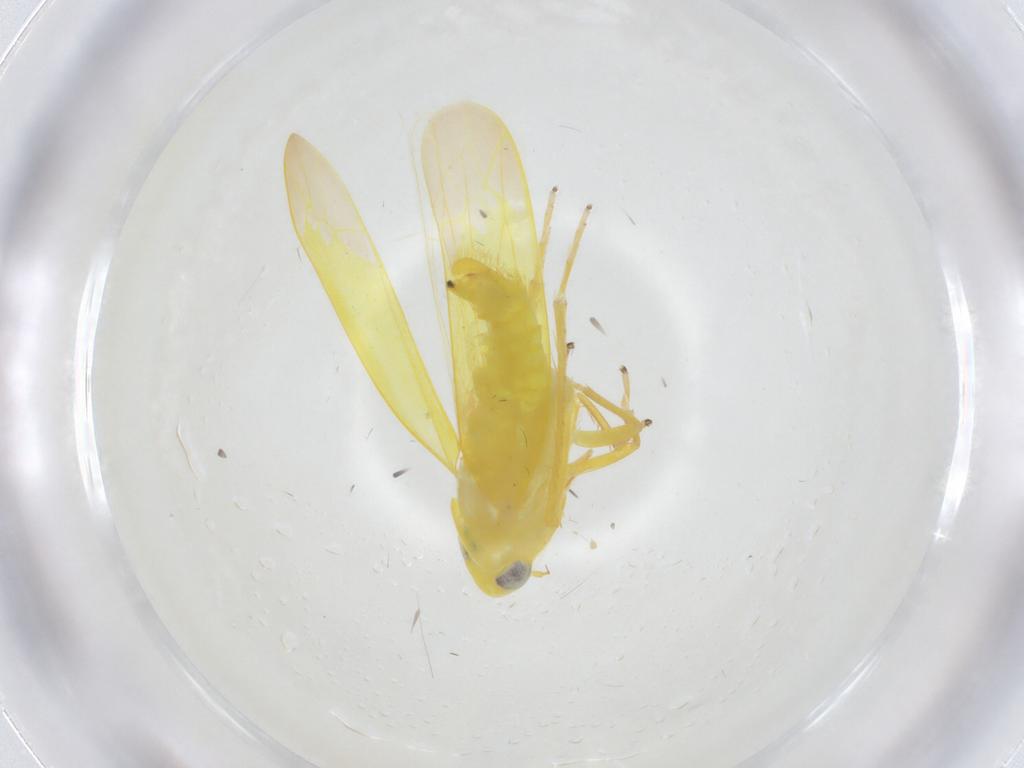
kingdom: Animalia
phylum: Arthropoda
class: Insecta
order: Hemiptera
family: Cicadellidae
